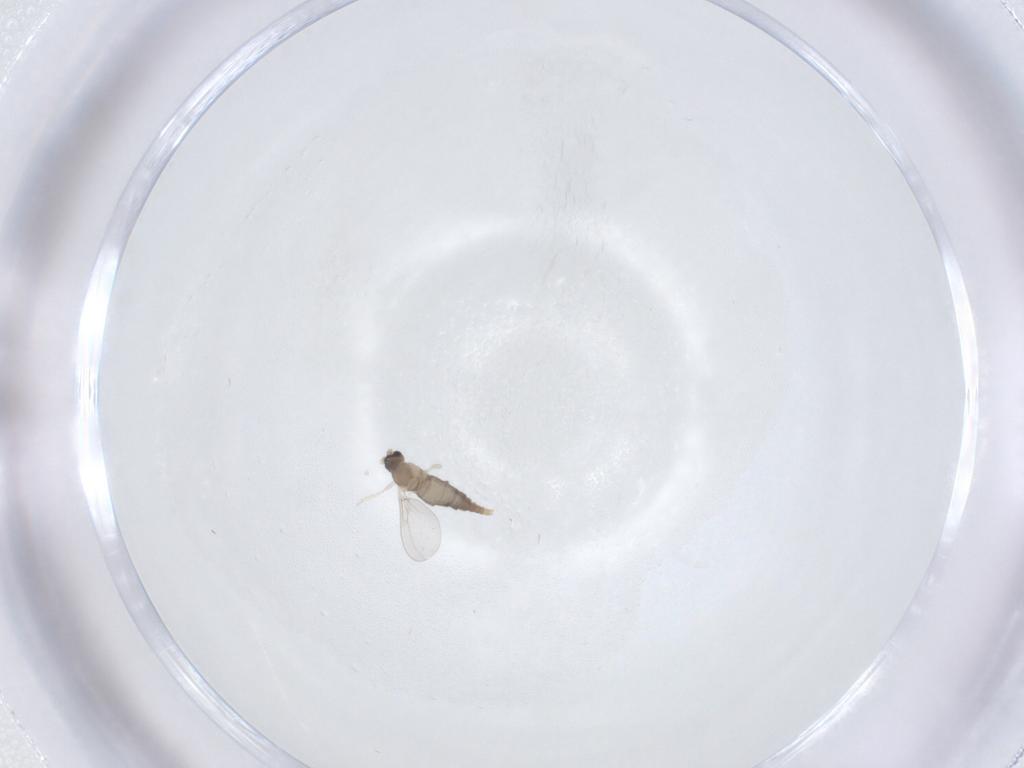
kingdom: Animalia
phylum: Arthropoda
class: Insecta
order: Diptera
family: Cecidomyiidae
